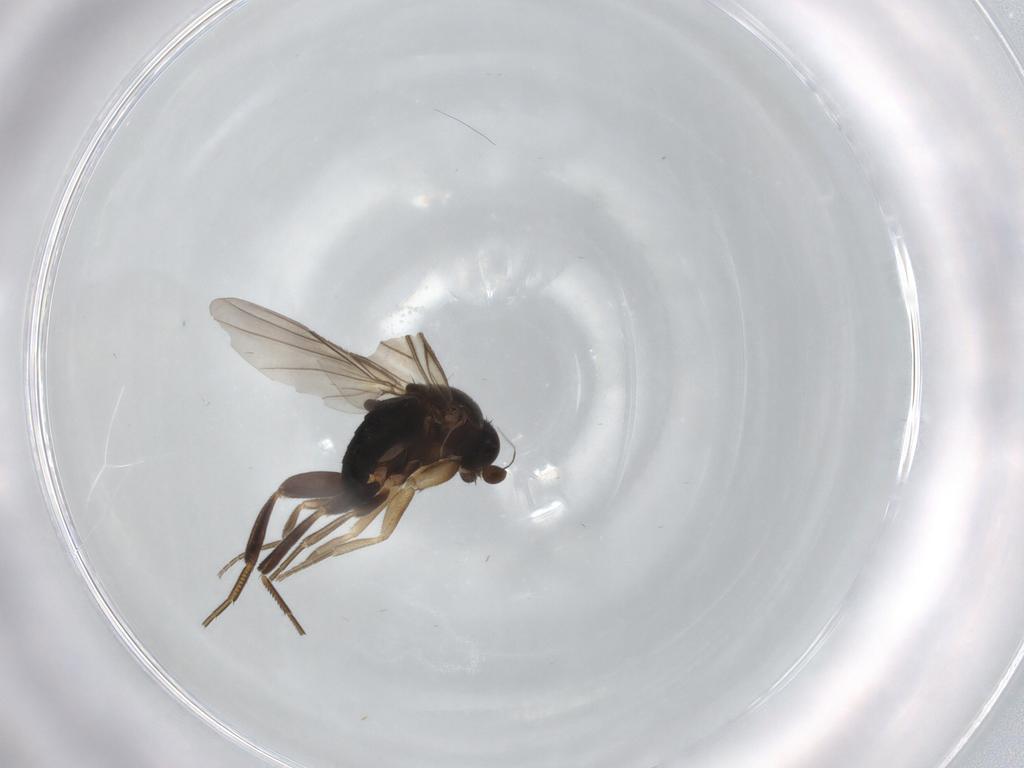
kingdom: Animalia
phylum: Arthropoda
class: Insecta
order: Diptera
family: Phoridae
